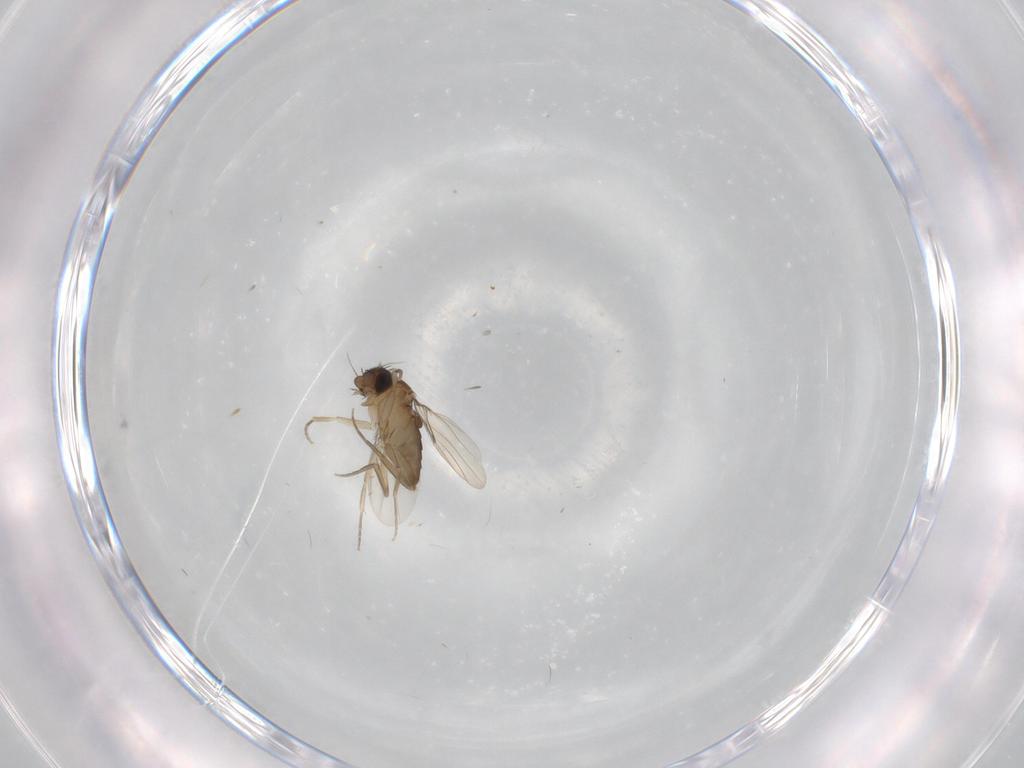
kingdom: Animalia
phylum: Arthropoda
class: Insecta
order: Diptera
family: Phoridae
